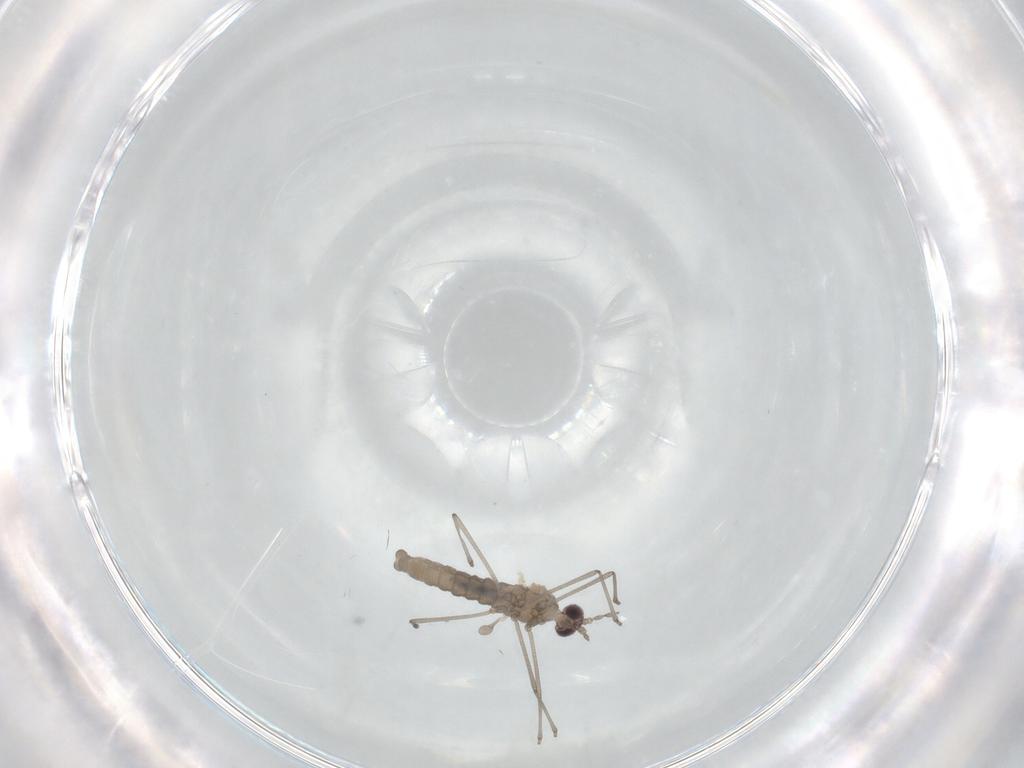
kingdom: Animalia
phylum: Arthropoda
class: Insecta
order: Diptera
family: Cecidomyiidae
